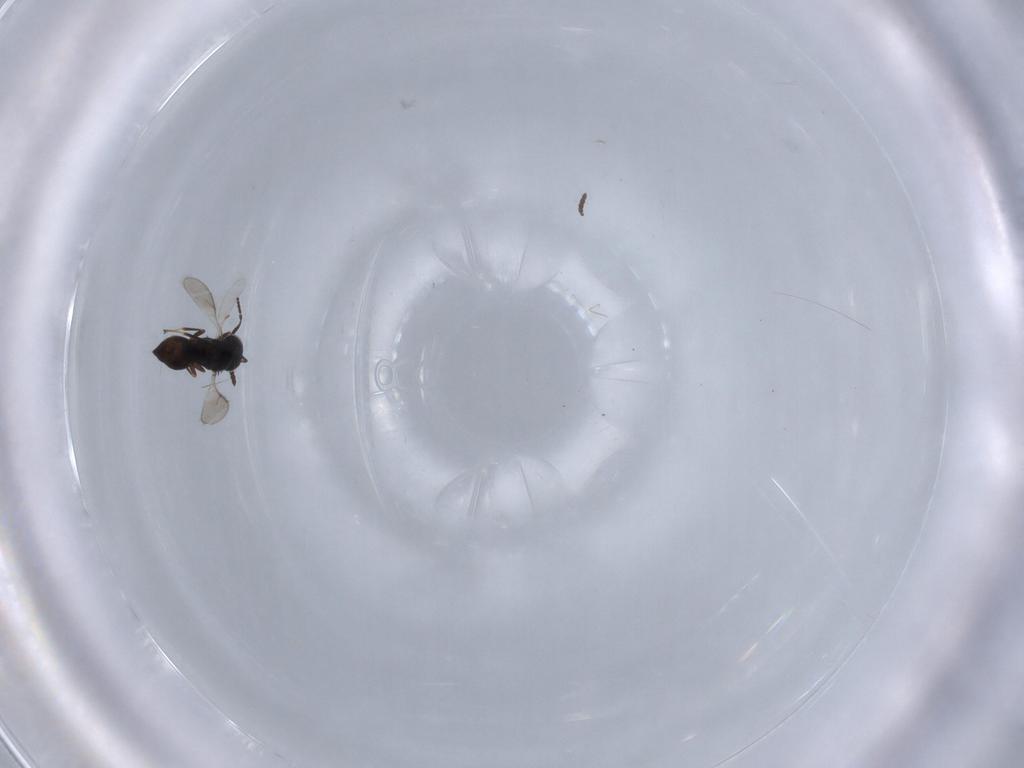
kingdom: Animalia
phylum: Arthropoda
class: Insecta
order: Hymenoptera
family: Scelionidae
